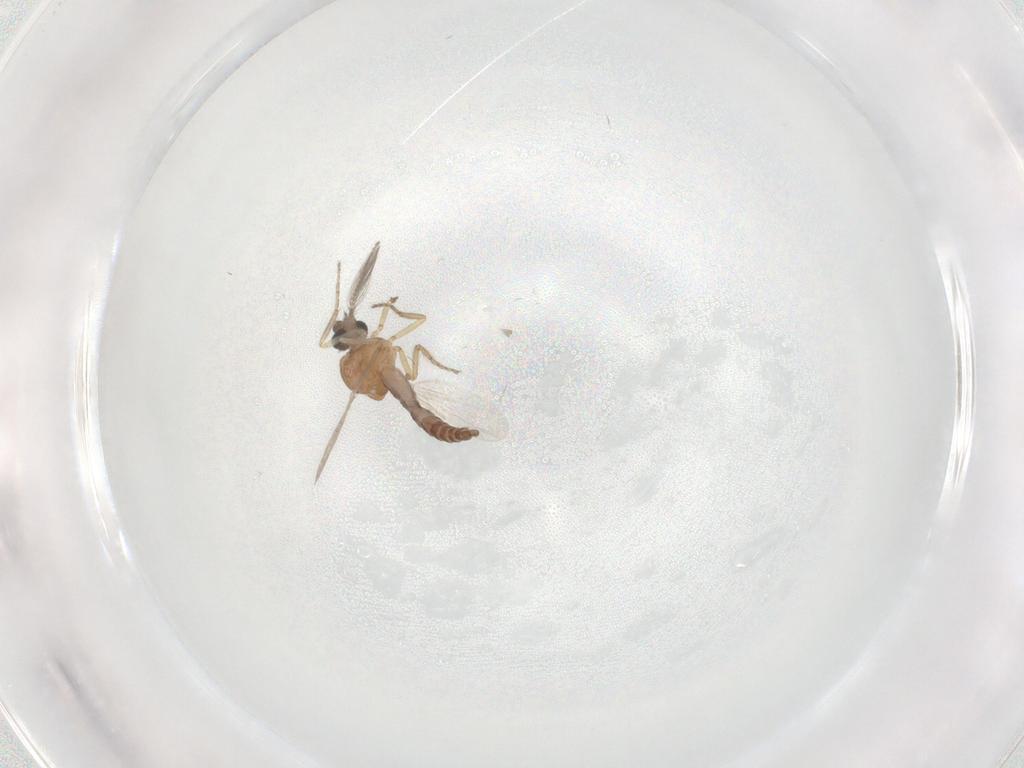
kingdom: Animalia
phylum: Arthropoda
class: Insecta
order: Diptera
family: Ceratopogonidae
